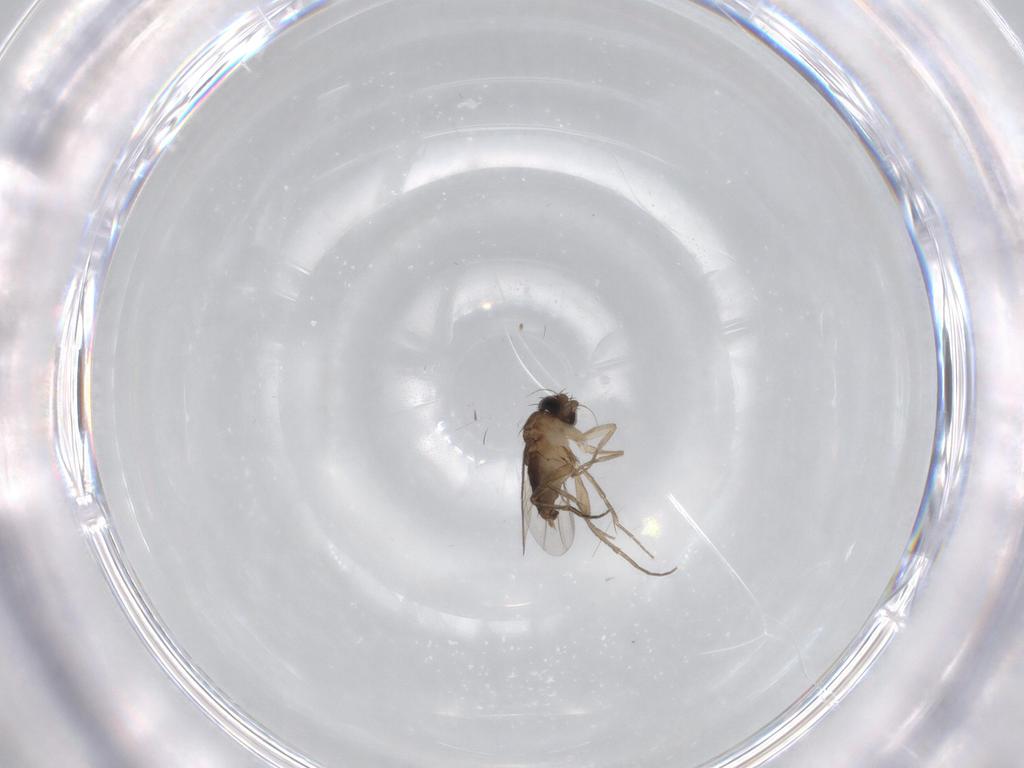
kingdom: Animalia
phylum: Arthropoda
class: Insecta
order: Diptera
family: Phoridae
